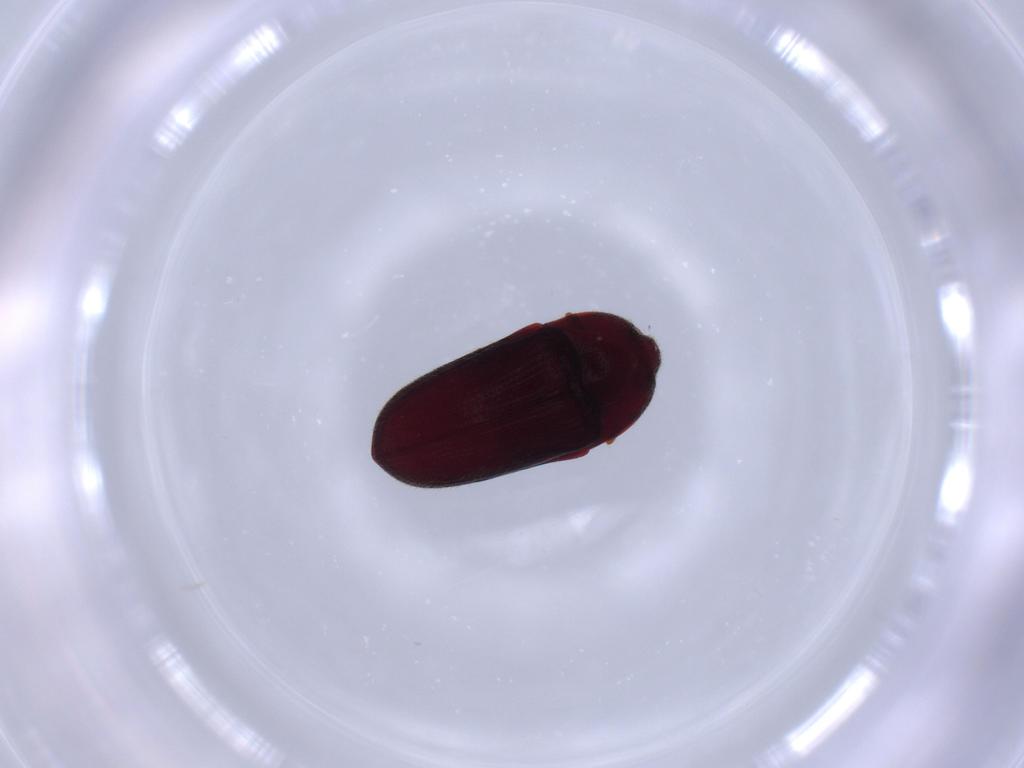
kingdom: Animalia
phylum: Arthropoda
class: Insecta
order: Coleoptera
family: Throscidae
